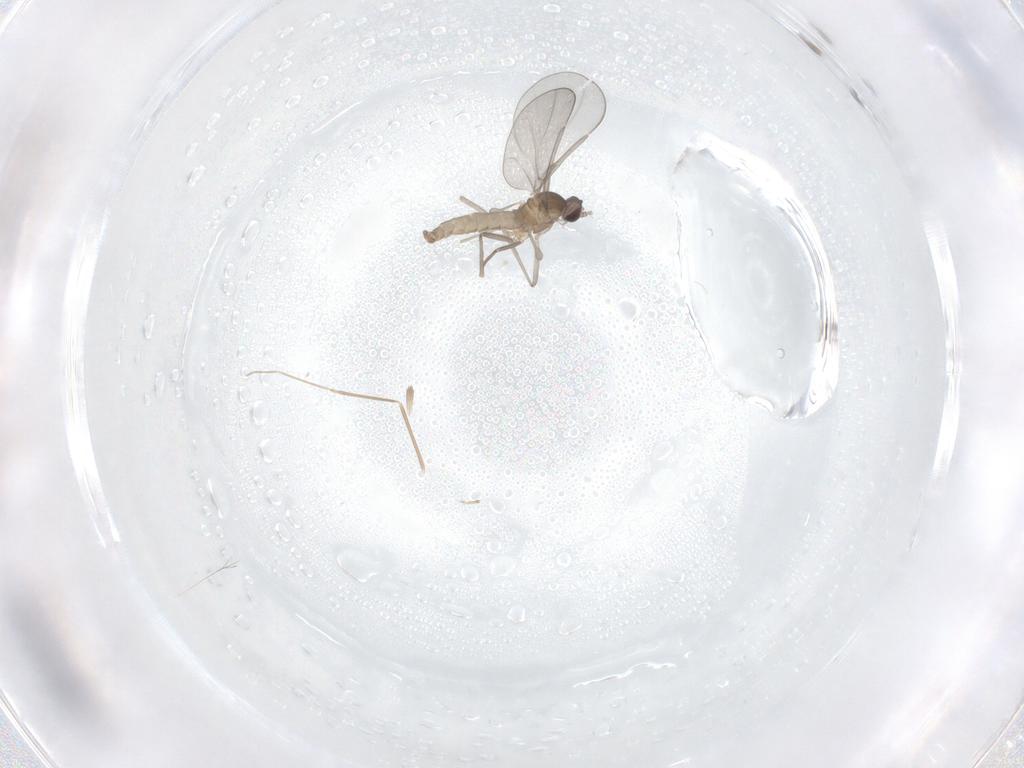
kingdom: Animalia
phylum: Arthropoda
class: Insecta
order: Diptera
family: Cecidomyiidae
